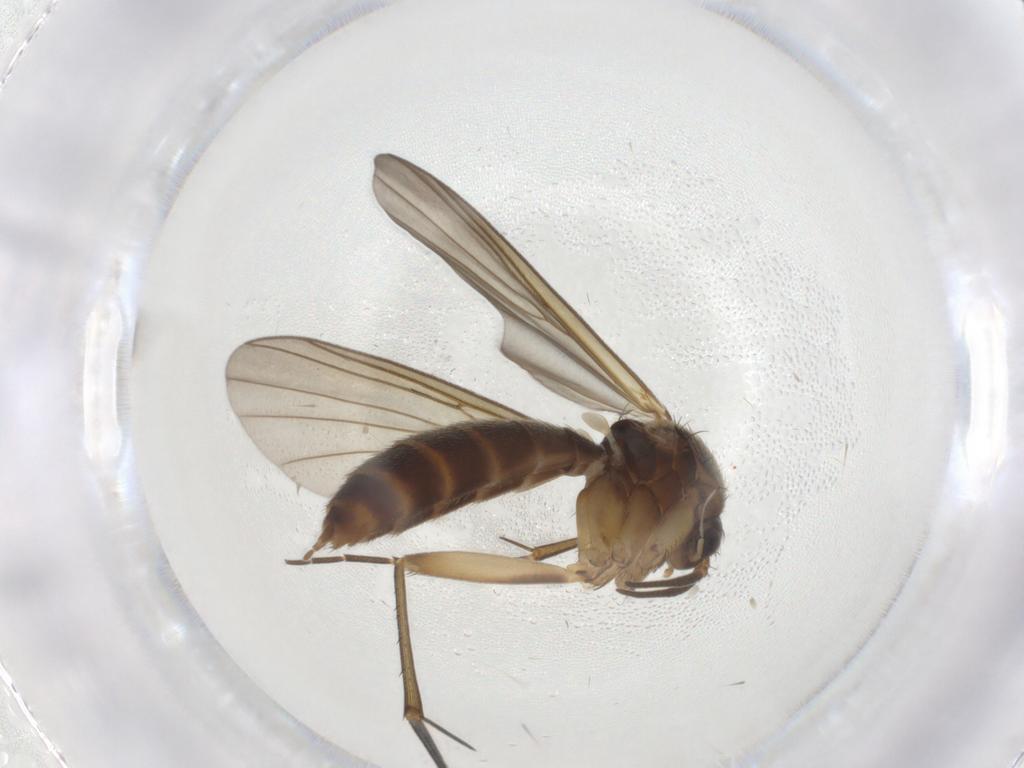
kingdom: Animalia
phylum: Arthropoda
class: Insecta
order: Diptera
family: Mycetophilidae
